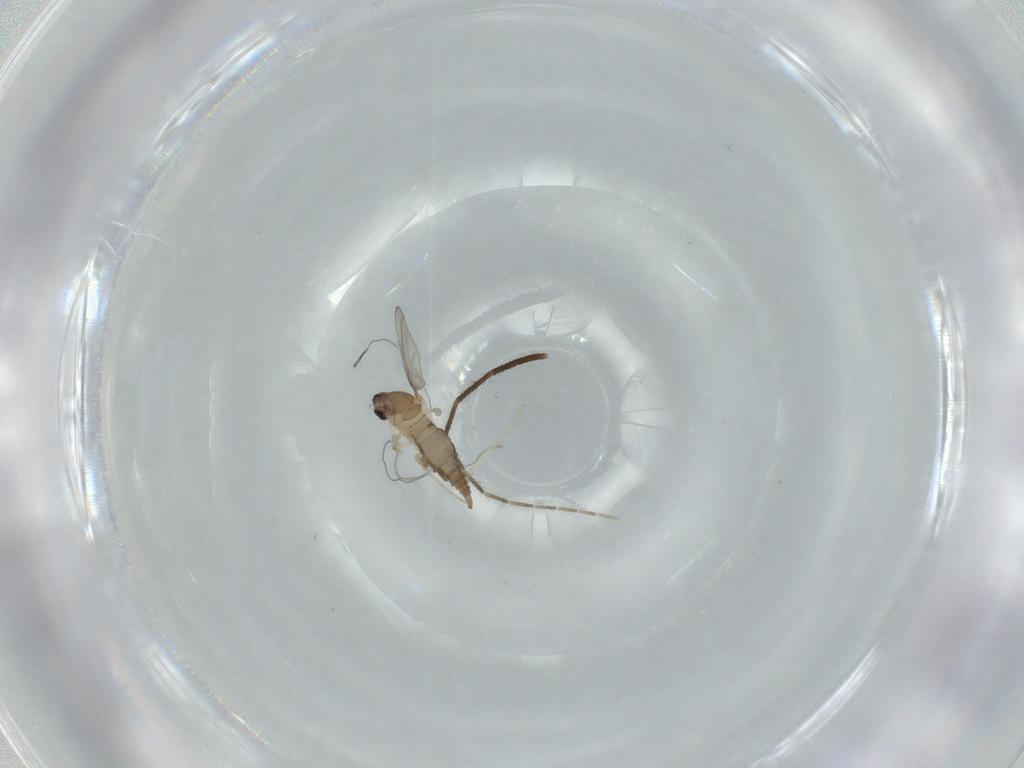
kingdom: Animalia
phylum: Arthropoda
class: Insecta
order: Diptera
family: Cecidomyiidae
